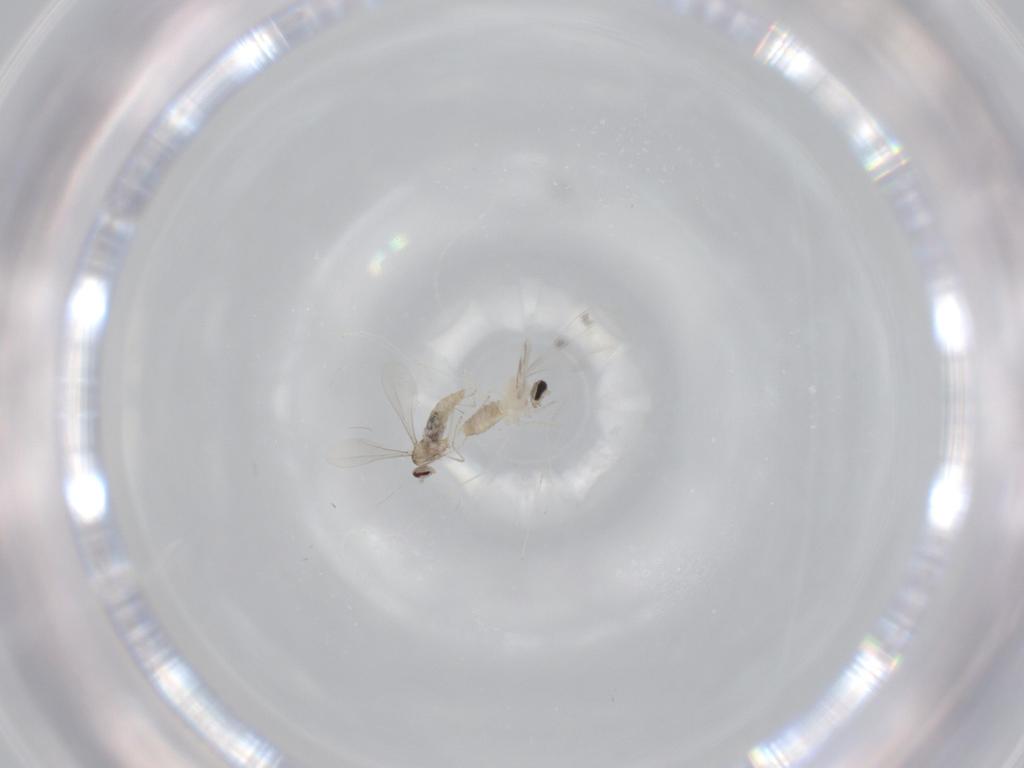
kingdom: Animalia
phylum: Arthropoda
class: Insecta
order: Diptera
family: Cecidomyiidae
